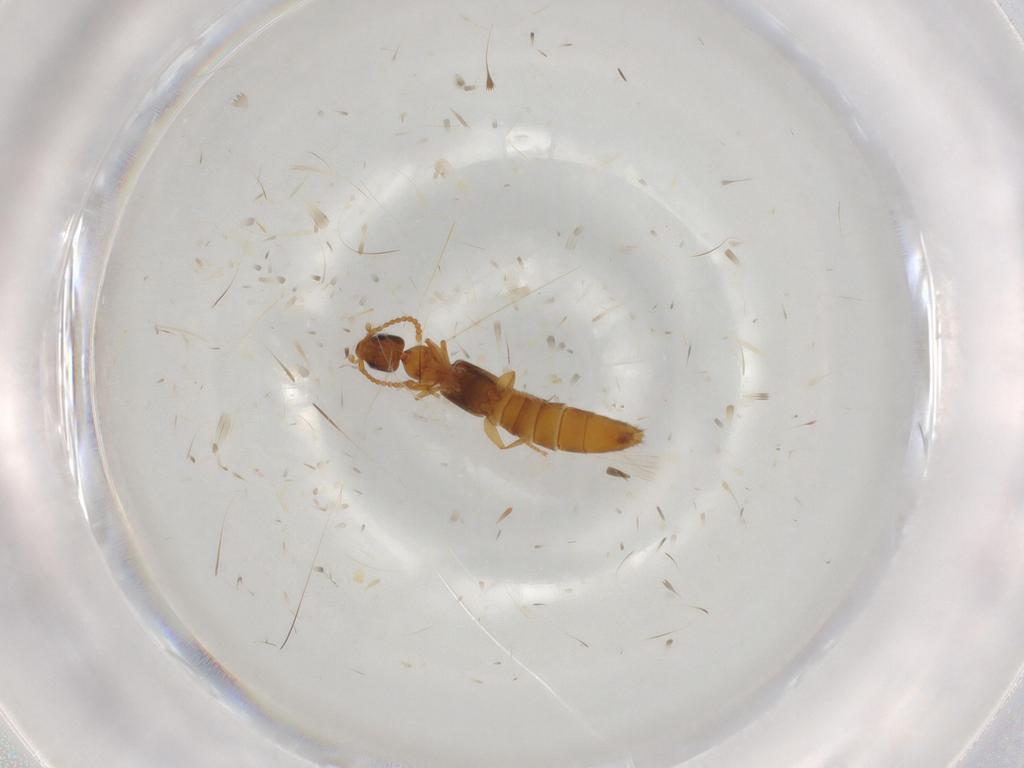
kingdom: Animalia
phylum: Arthropoda
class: Insecta
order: Coleoptera
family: Staphylinidae
